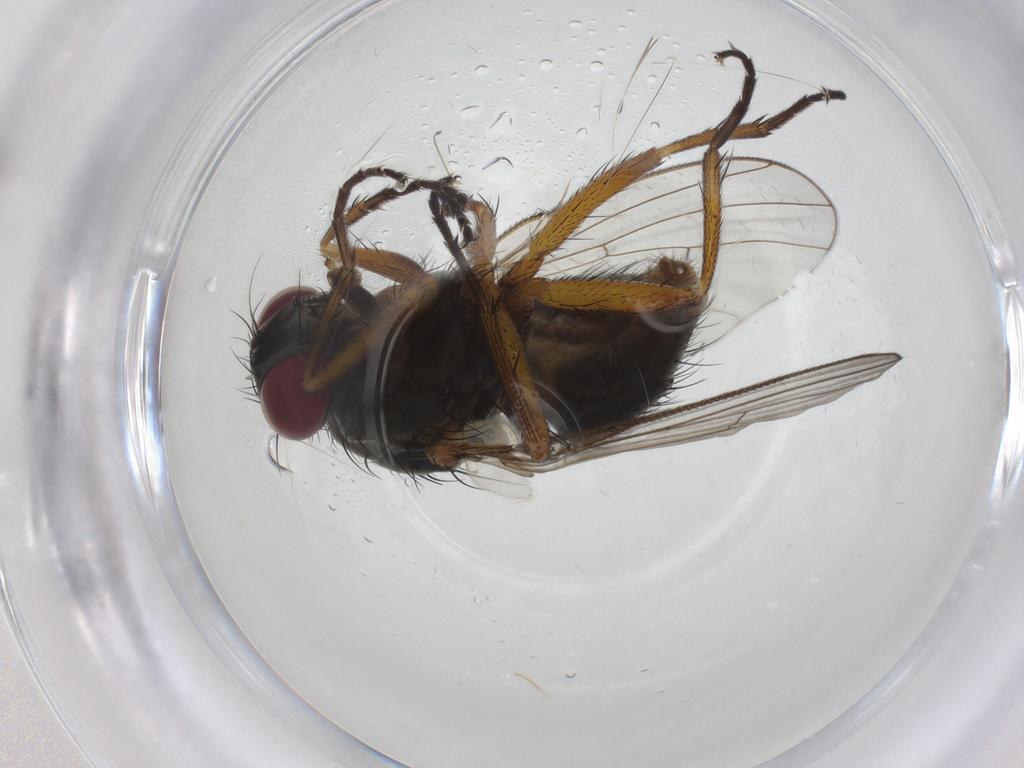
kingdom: Animalia
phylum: Arthropoda
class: Insecta
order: Diptera
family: Muscidae
